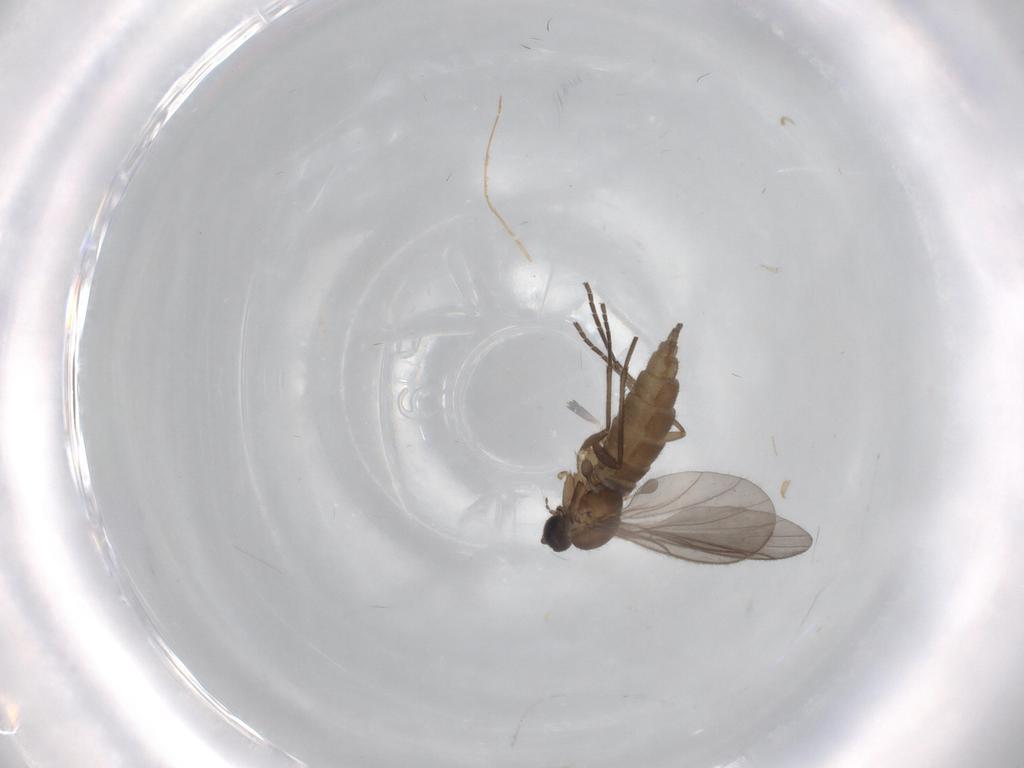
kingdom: Animalia
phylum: Arthropoda
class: Insecta
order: Diptera
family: Sciaridae
